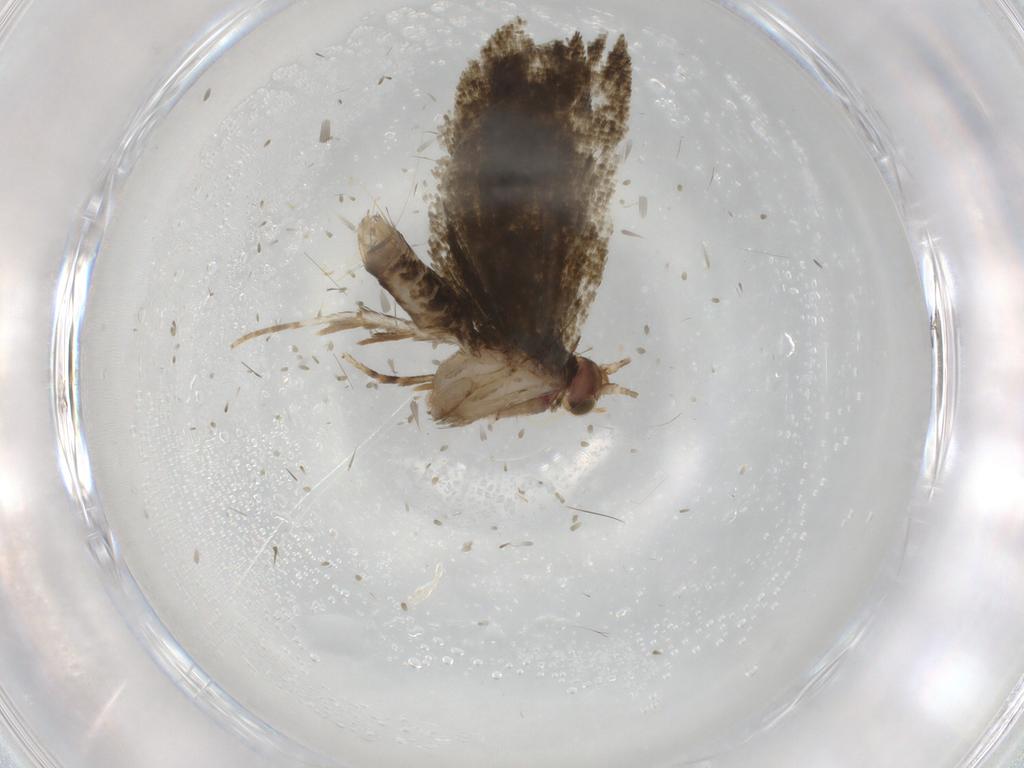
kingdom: Animalia
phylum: Arthropoda
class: Insecta
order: Lepidoptera
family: Tortricidae
